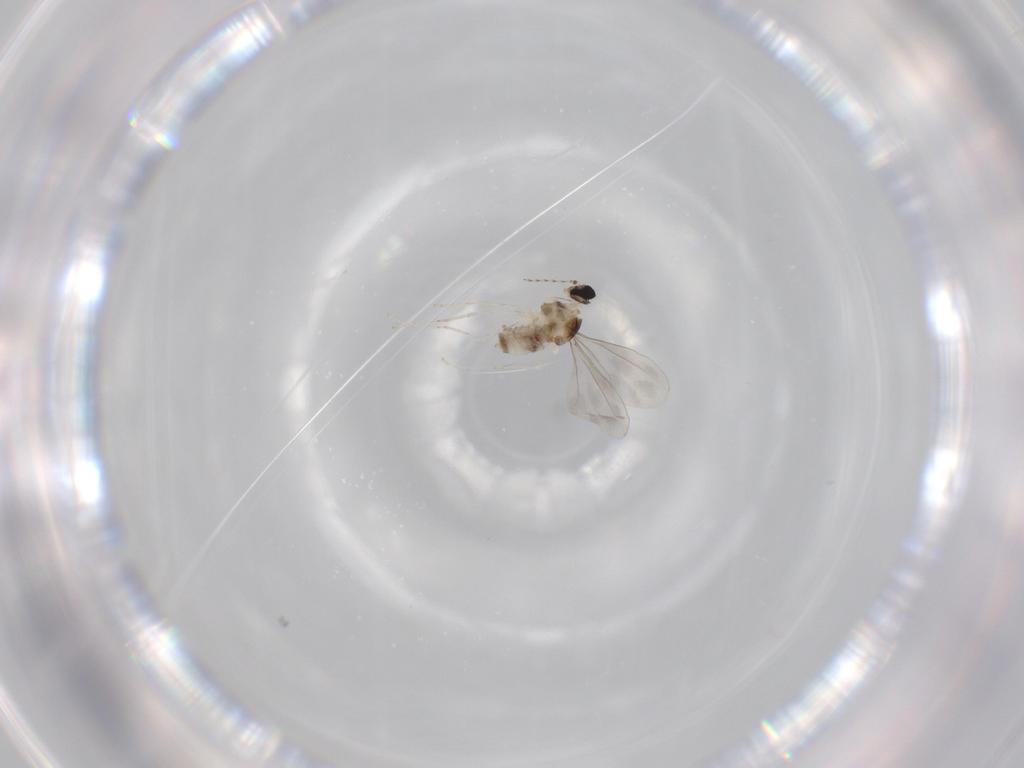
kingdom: Animalia
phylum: Arthropoda
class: Insecta
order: Diptera
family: Cecidomyiidae
